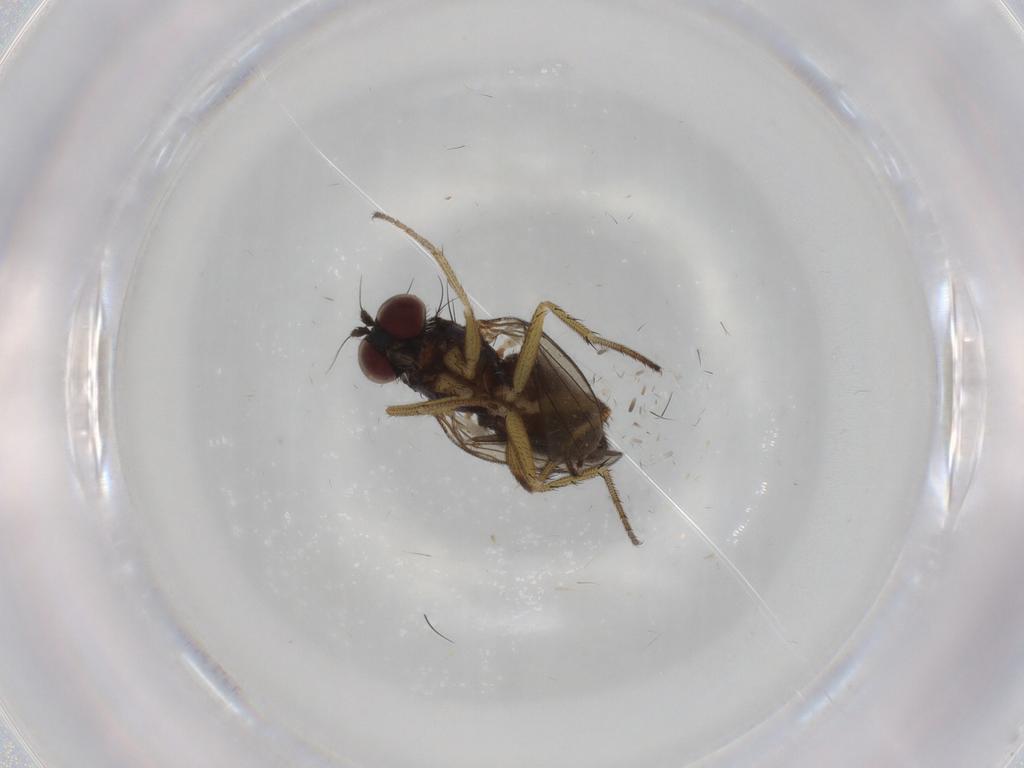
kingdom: Animalia
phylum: Arthropoda
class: Insecta
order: Diptera
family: Dolichopodidae
